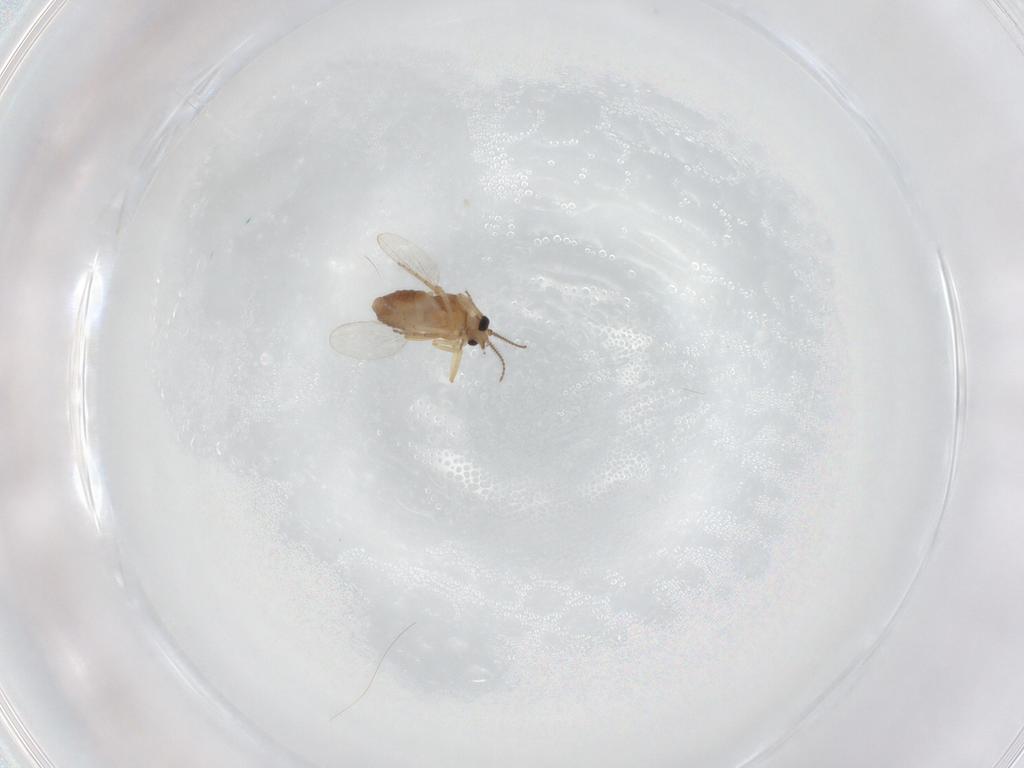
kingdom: Animalia
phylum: Arthropoda
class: Insecta
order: Diptera
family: Ceratopogonidae
